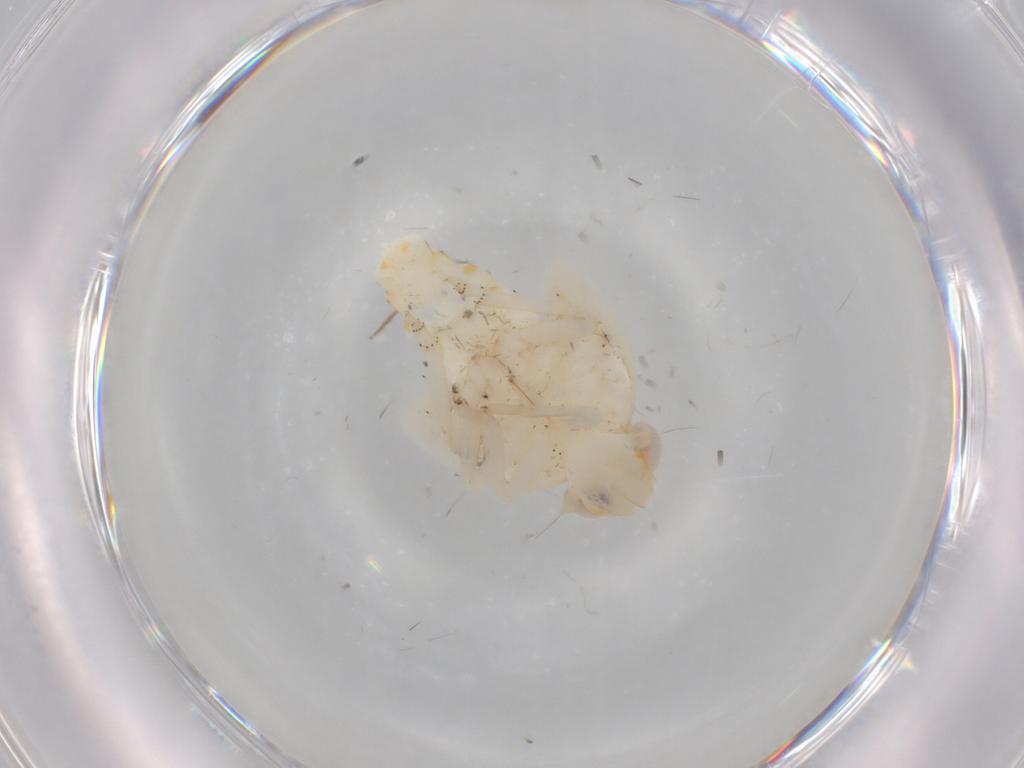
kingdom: Animalia
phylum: Arthropoda
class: Insecta
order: Hemiptera
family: Nogodinidae
